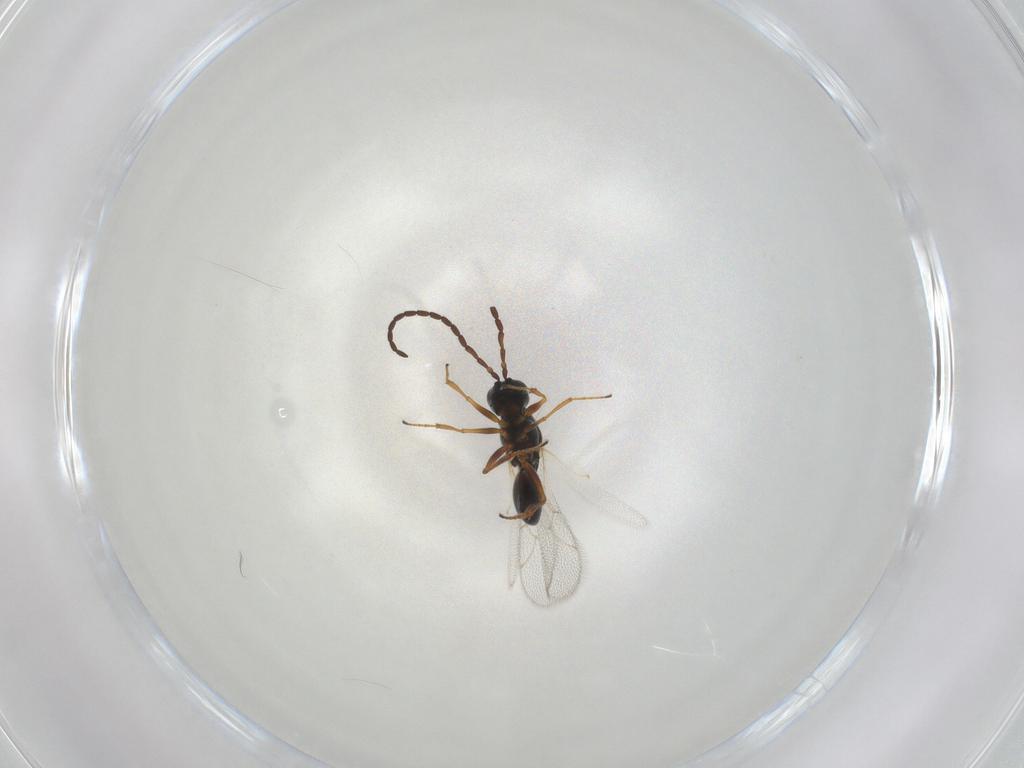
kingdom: Animalia
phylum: Arthropoda
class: Insecta
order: Hymenoptera
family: Figitidae
